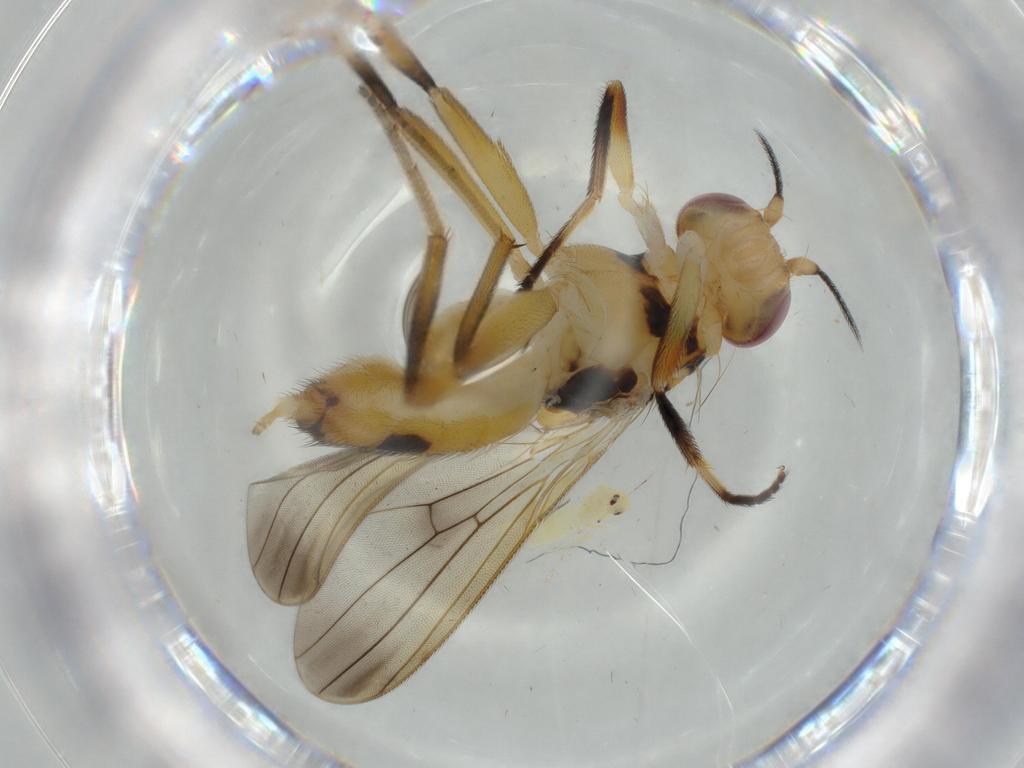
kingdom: Animalia
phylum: Arthropoda
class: Insecta
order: Diptera
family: Clusiidae
